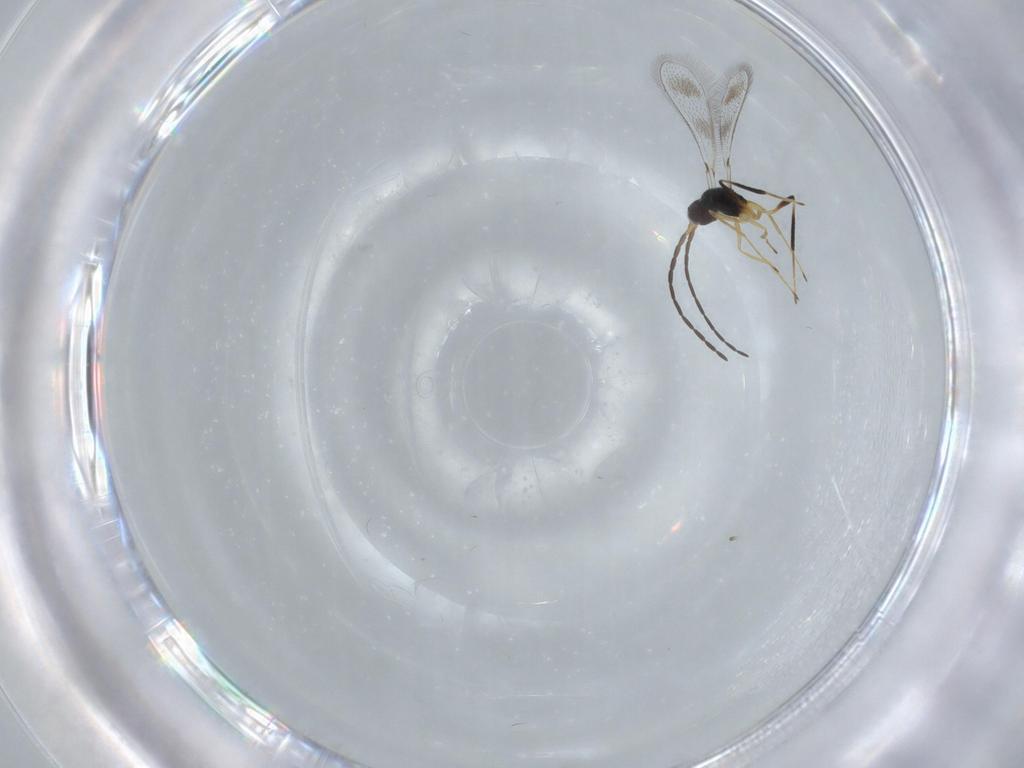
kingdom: Animalia
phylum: Arthropoda
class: Insecta
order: Hymenoptera
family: Mymaridae
